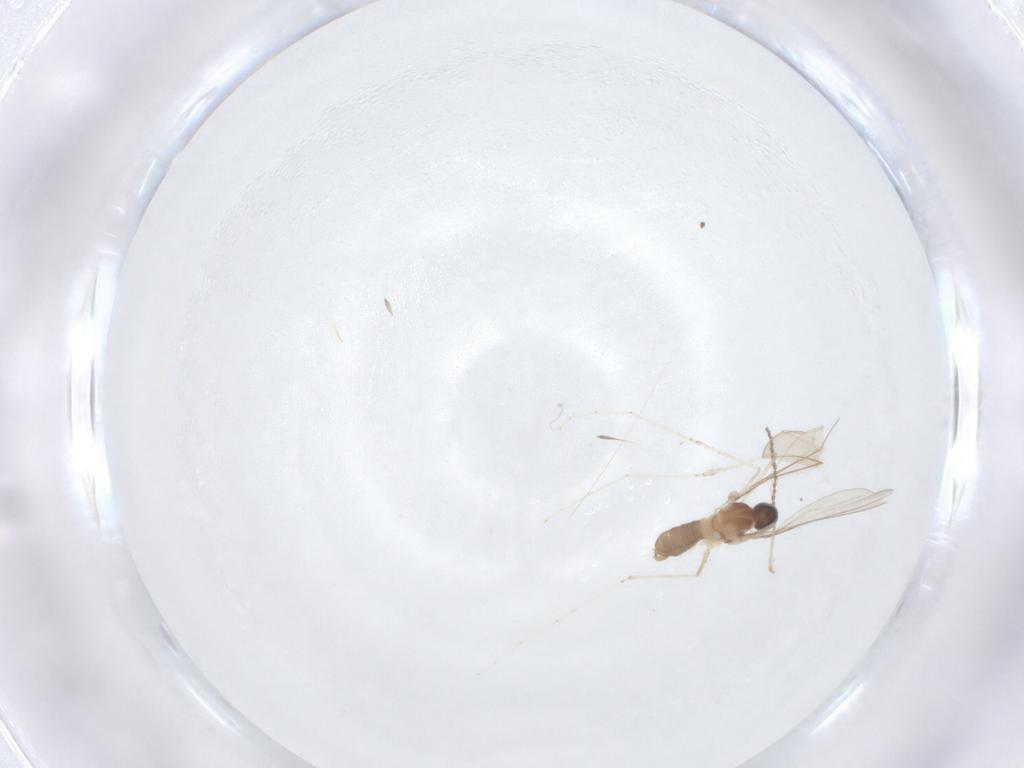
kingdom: Animalia
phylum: Arthropoda
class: Insecta
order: Diptera
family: Cecidomyiidae
